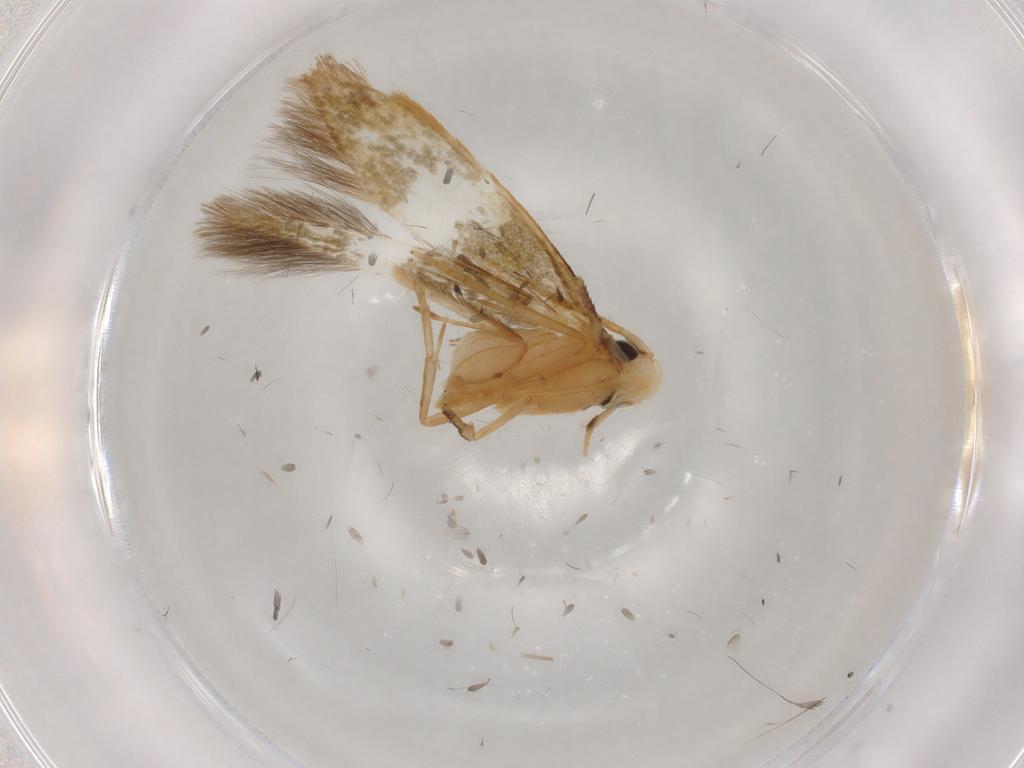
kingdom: Animalia
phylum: Arthropoda
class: Insecta
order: Lepidoptera
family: Tineidae
